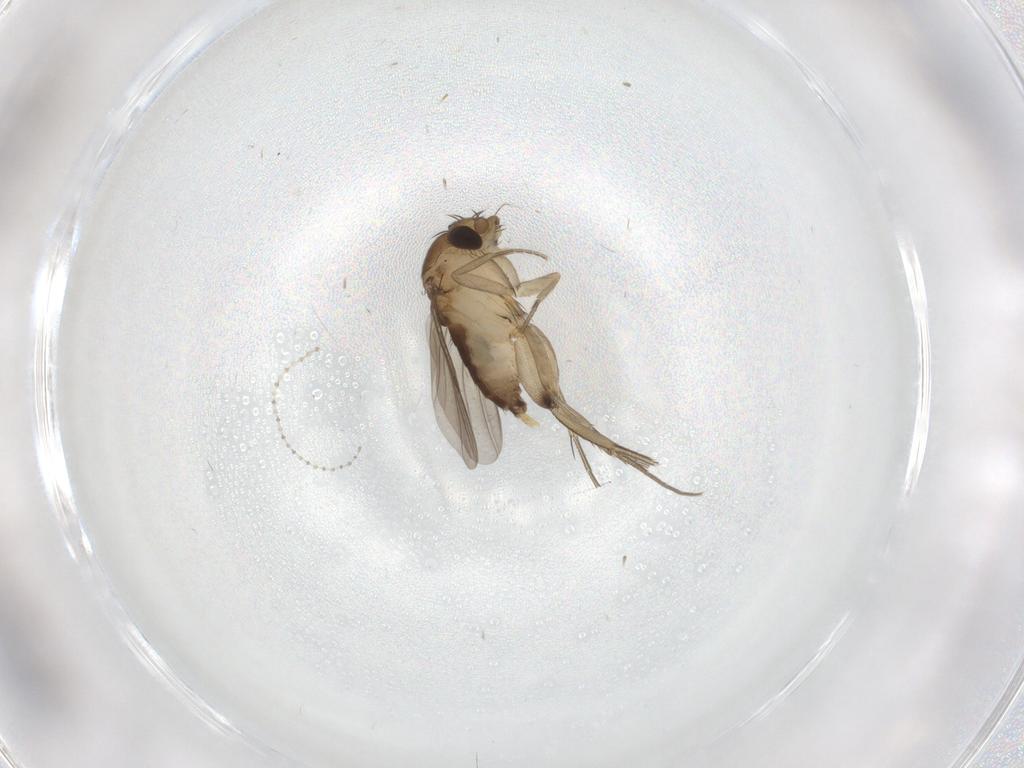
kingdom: Animalia
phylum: Arthropoda
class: Insecta
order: Diptera
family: Phoridae
